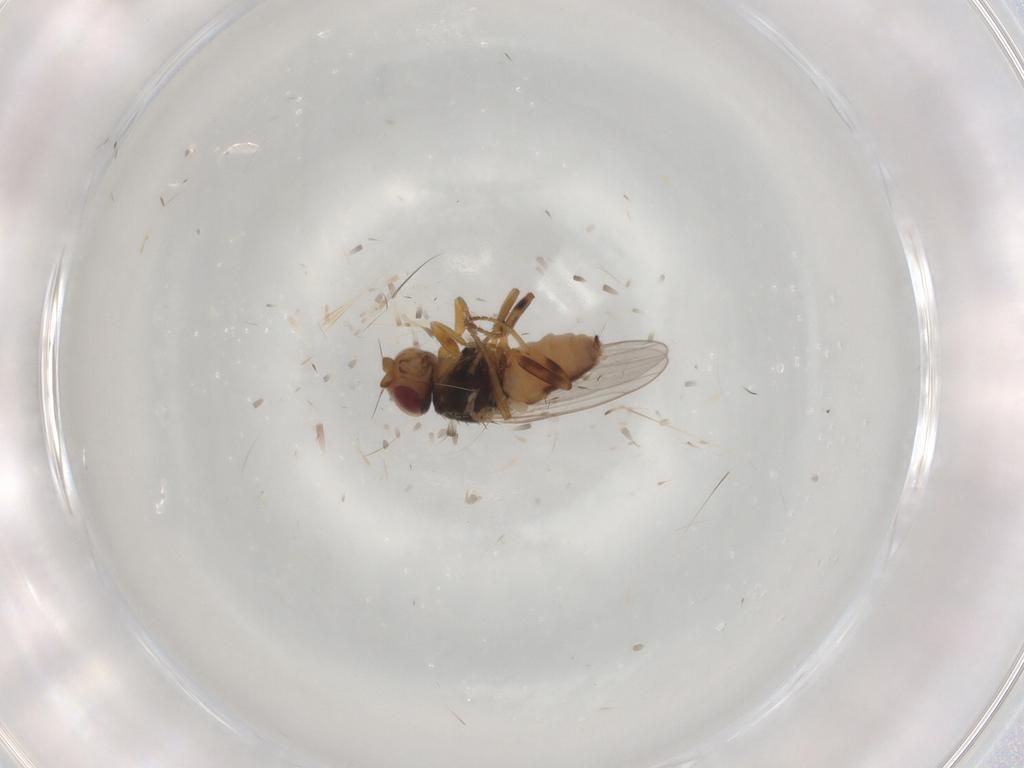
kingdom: Animalia
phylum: Arthropoda
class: Insecta
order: Diptera
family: Chloropidae
